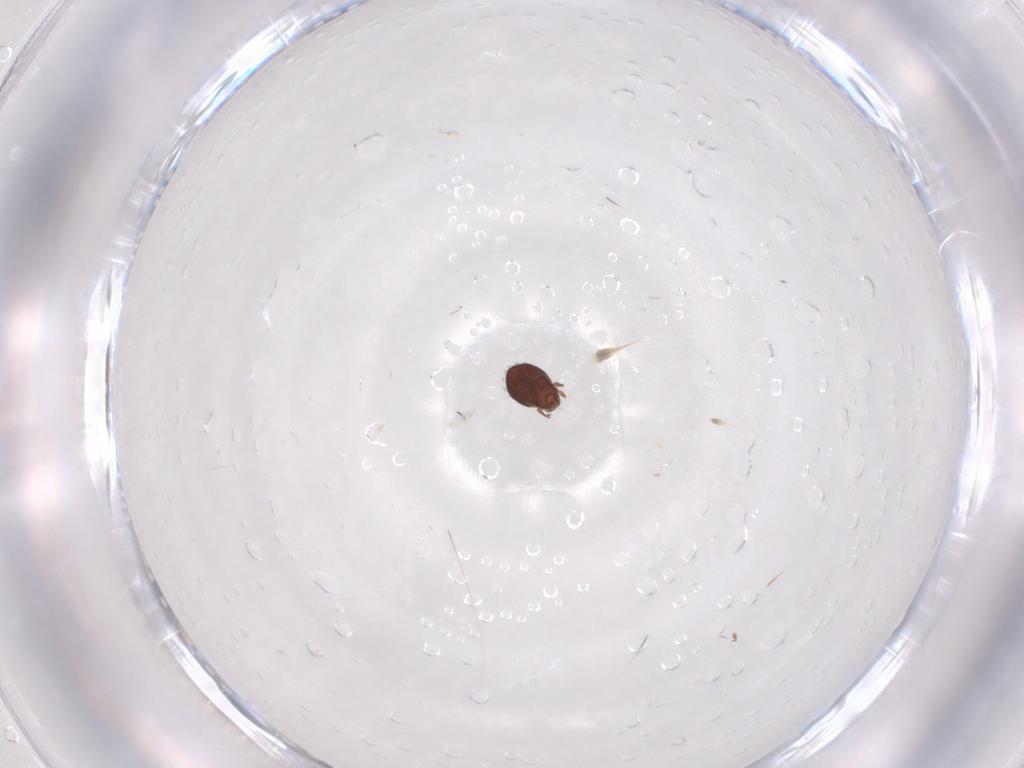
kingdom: Animalia
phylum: Arthropoda
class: Arachnida
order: Sarcoptiformes
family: Scheloribatidae
